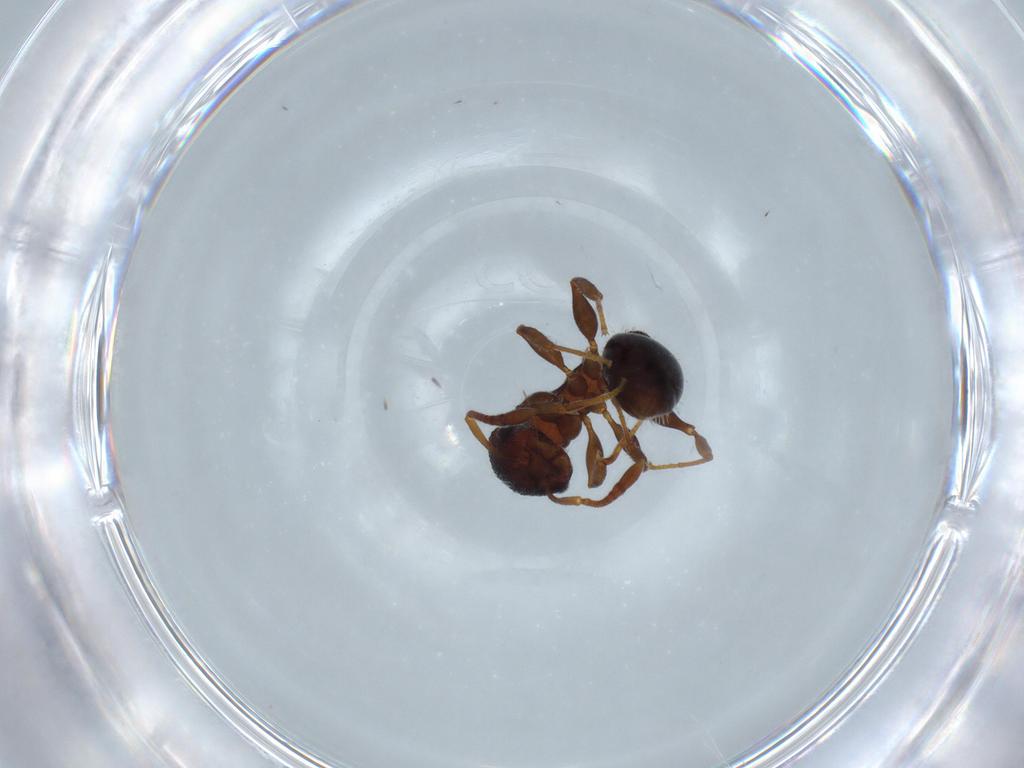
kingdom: Animalia
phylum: Arthropoda
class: Insecta
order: Hymenoptera
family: Formicidae
